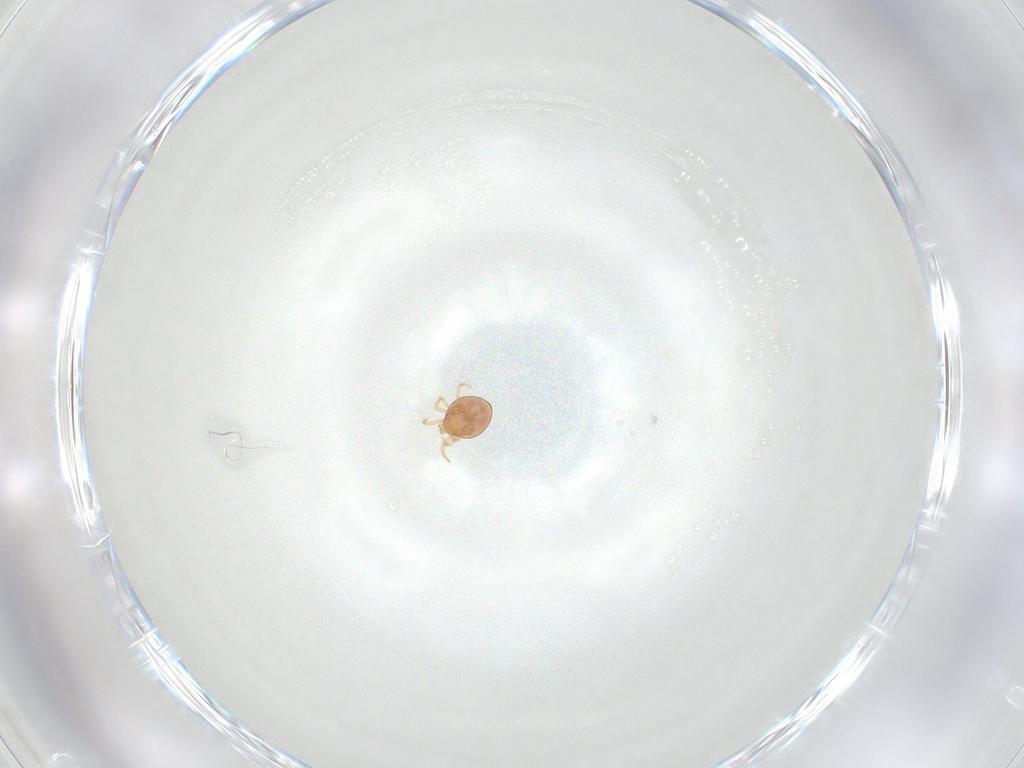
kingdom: Animalia
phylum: Arthropoda
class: Arachnida
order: Mesostigmata
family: Phytoseiidae
